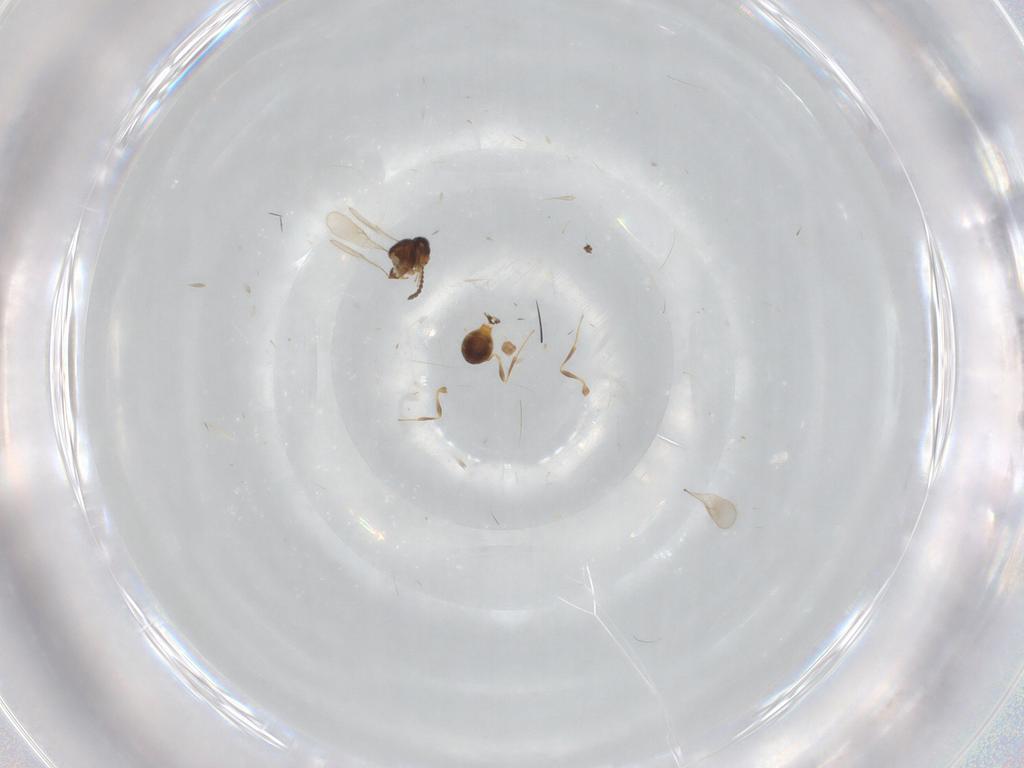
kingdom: Animalia
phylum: Arthropoda
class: Insecta
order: Hymenoptera
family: Scelionidae
